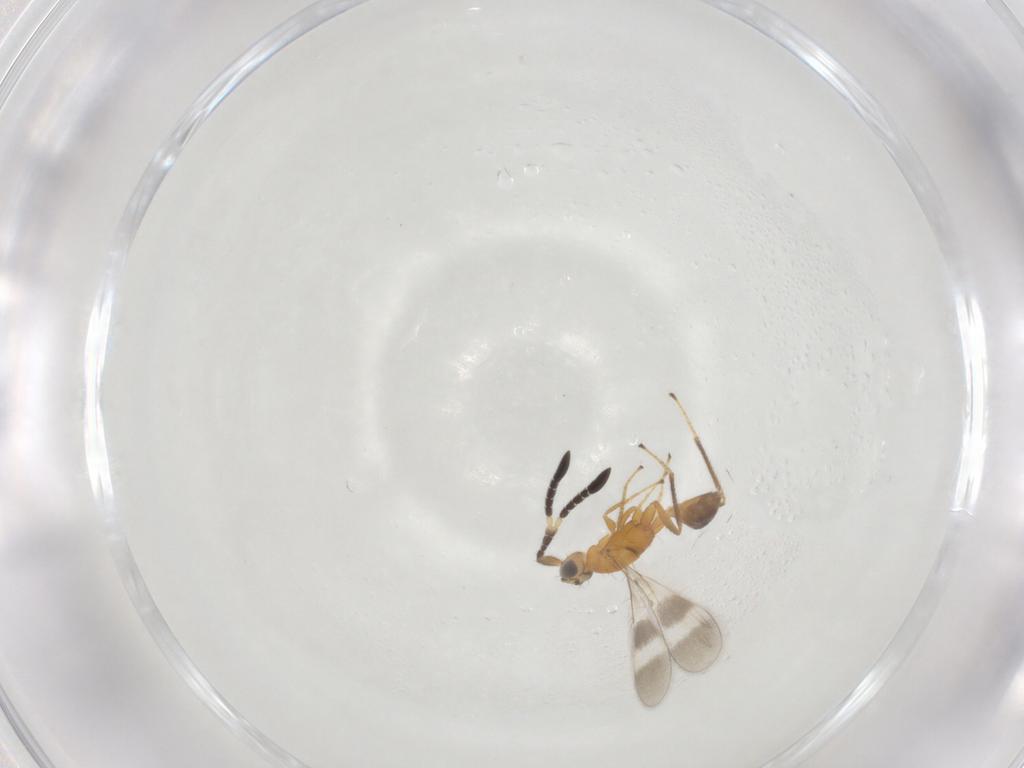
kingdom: Animalia
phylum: Arthropoda
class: Insecta
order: Hymenoptera
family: Mymaridae
